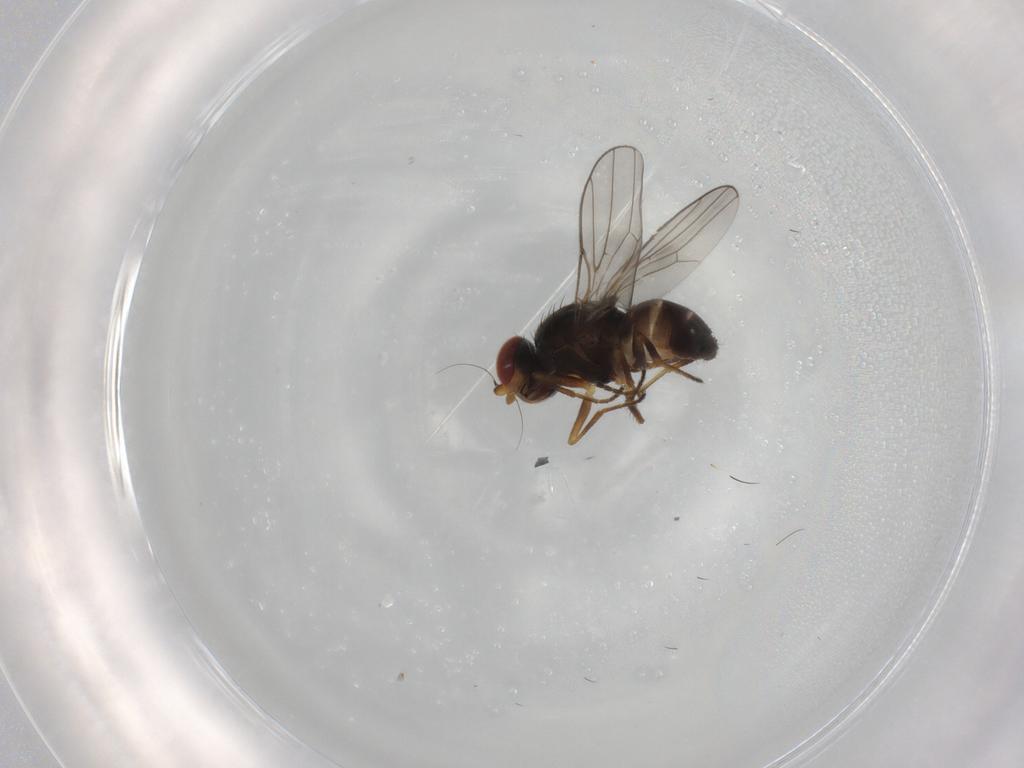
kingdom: Animalia
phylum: Arthropoda
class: Insecta
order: Diptera
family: Chloropidae
